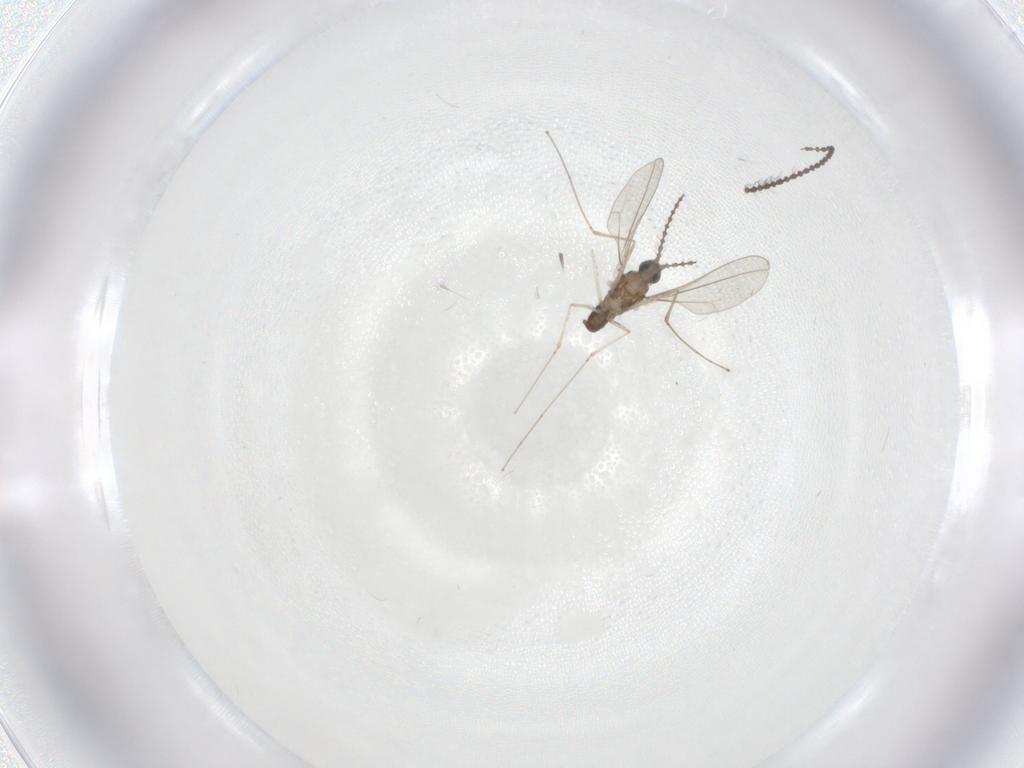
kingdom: Animalia
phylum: Arthropoda
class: Insecta
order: Diptera
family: Cecidomyiidae
